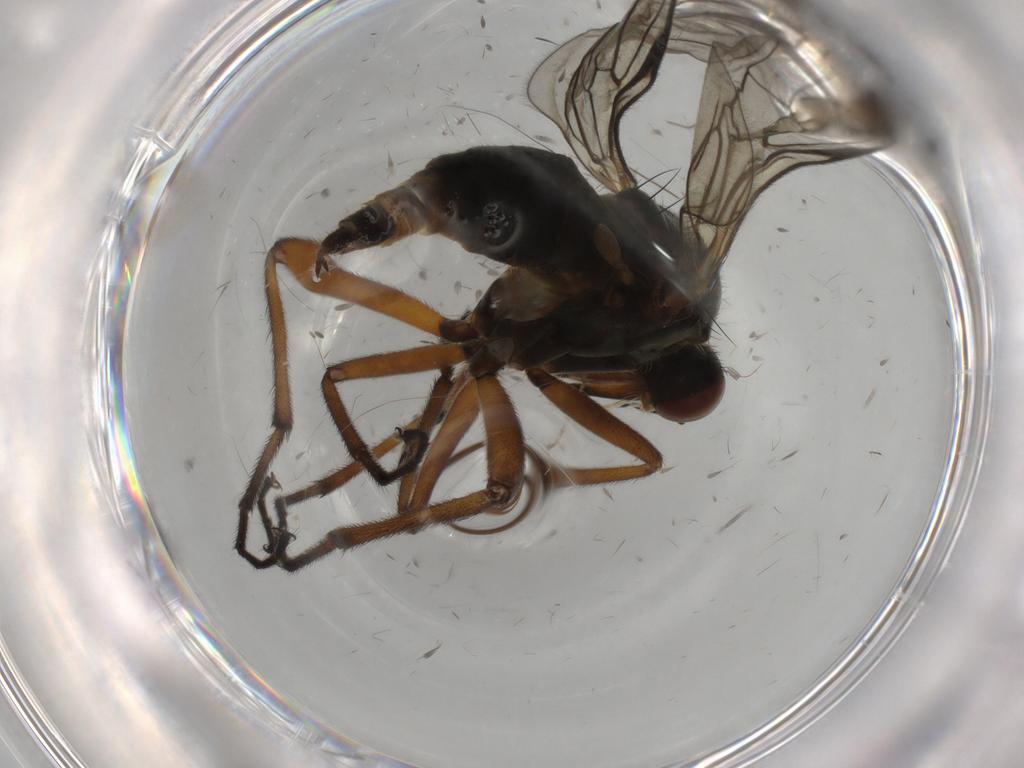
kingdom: Animalia
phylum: Arthropoda
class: Insecta
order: Diptera
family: Empididae
